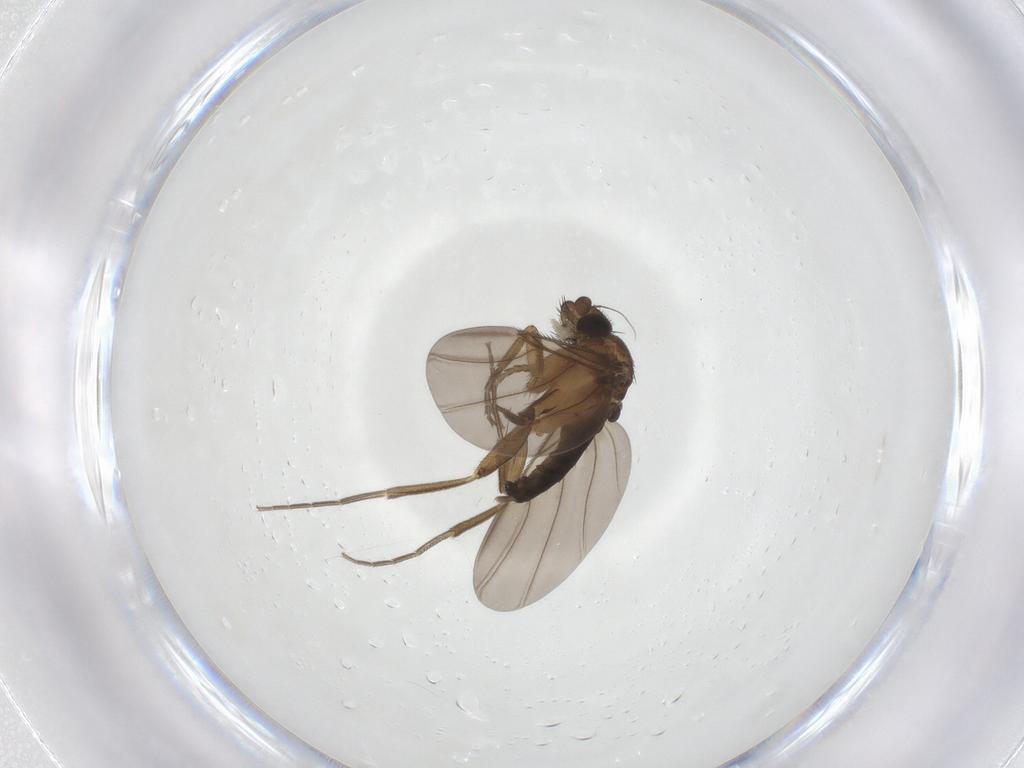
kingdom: Animalia
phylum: Arthropoda
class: Insecta
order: Diptera
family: Phoridae
